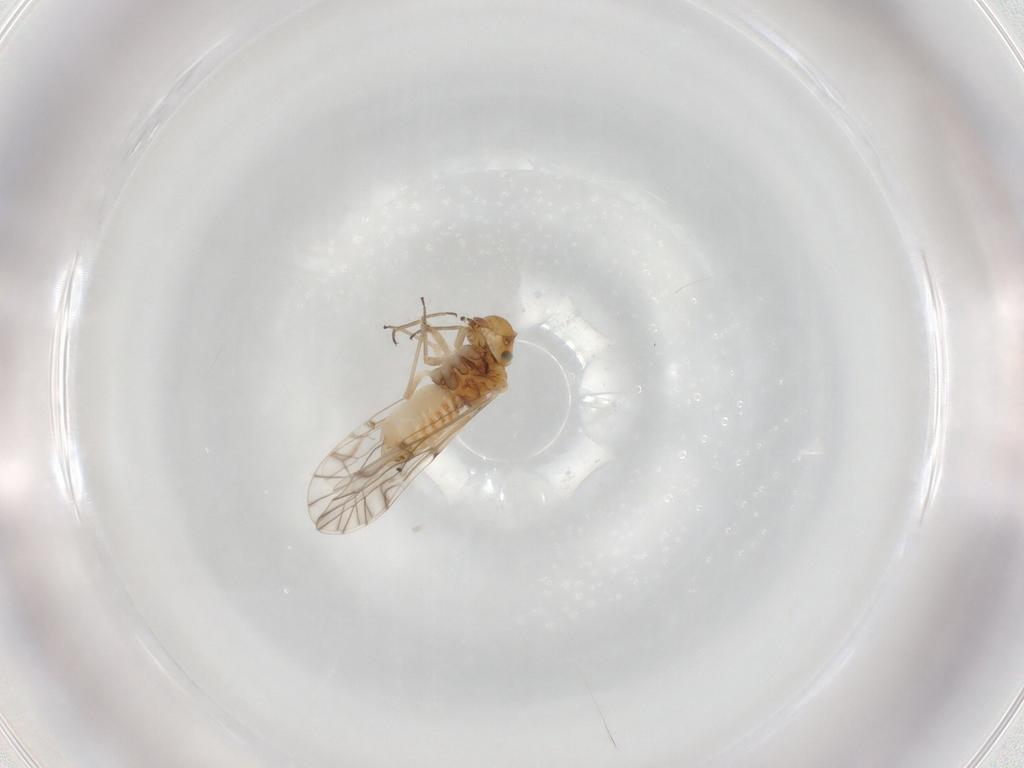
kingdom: Animalia
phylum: Arthropoda
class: Insecta
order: Psocodea
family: Lachesillidae
